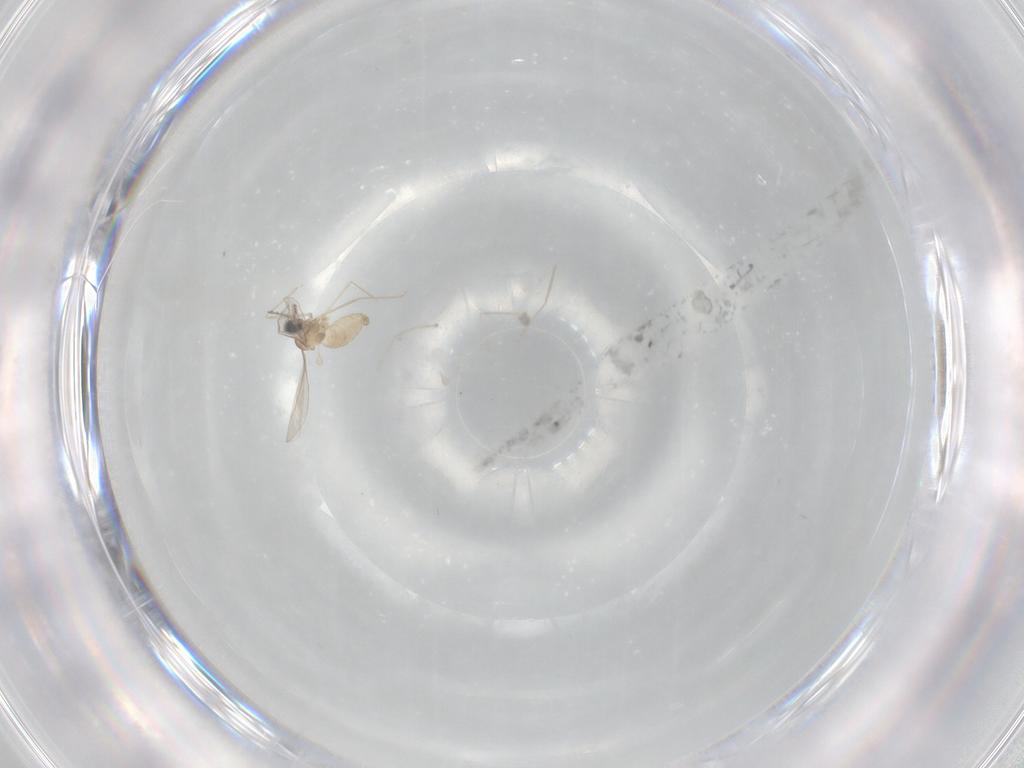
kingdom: Animalia
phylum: Arthropoda
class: Insecta
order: Diptera
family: Cecidomyiidae
